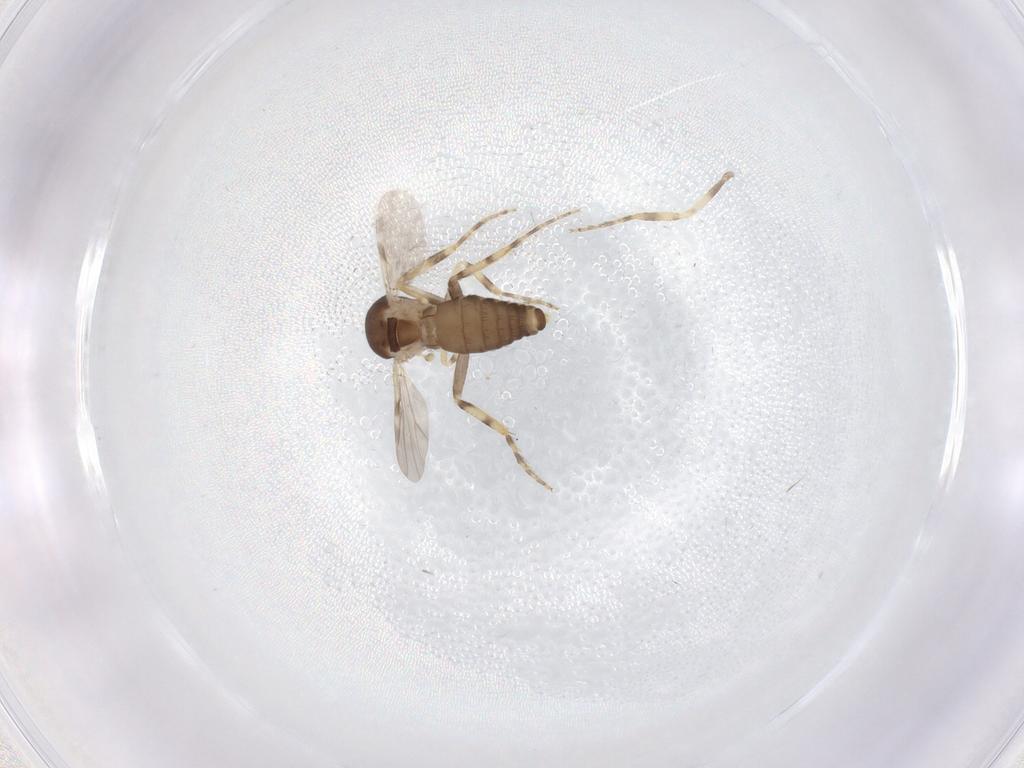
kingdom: Animalia
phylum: Arthropoda
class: Insecta
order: Diptera
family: Ceratopogonidae
